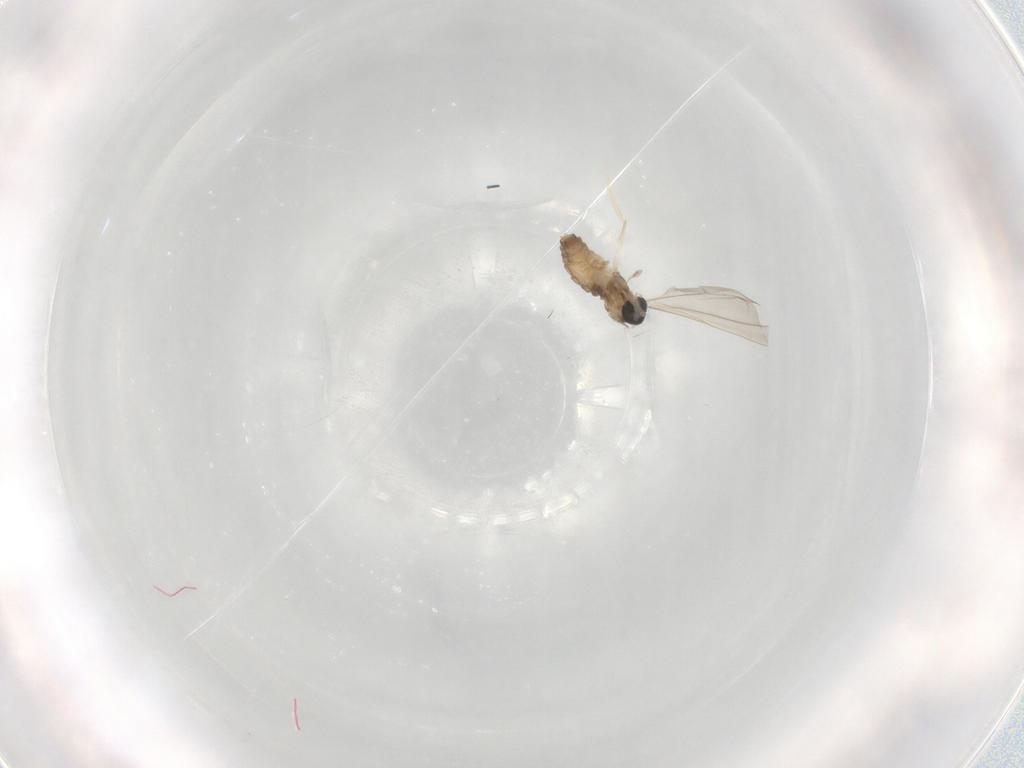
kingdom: Animalia
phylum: Arthropoda
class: Insecta
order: Diptera
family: Cecidomyiidae
